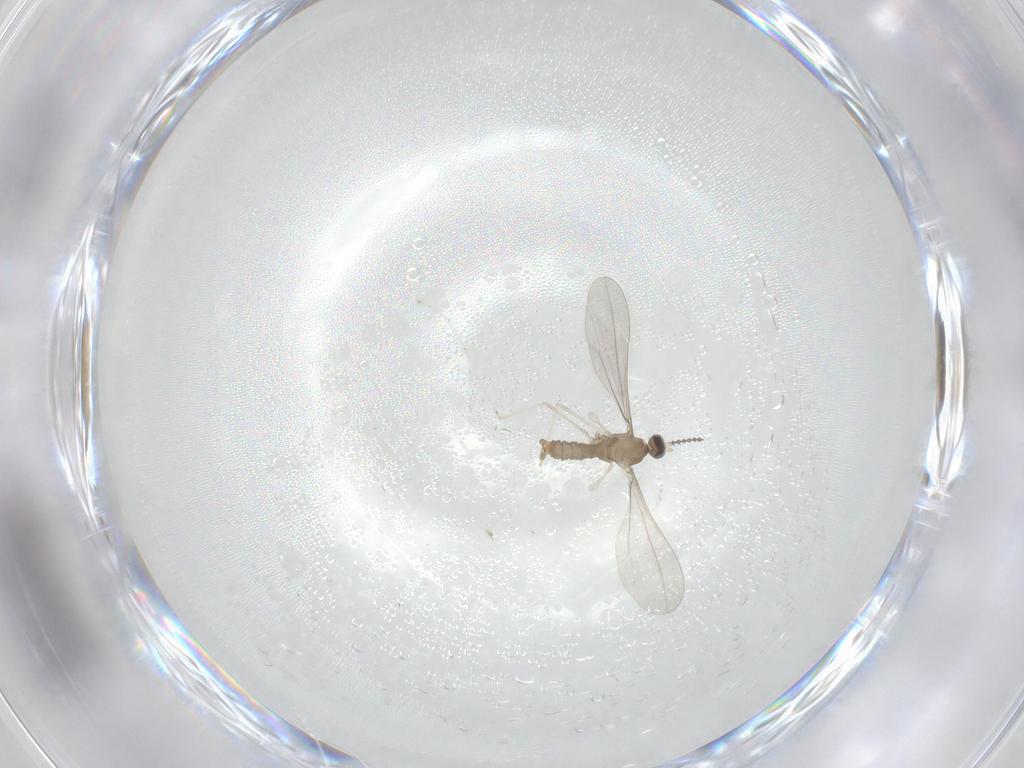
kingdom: Animalia
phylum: Arthropoda
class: Insecta
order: Diptera
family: Cecidomyiidae
